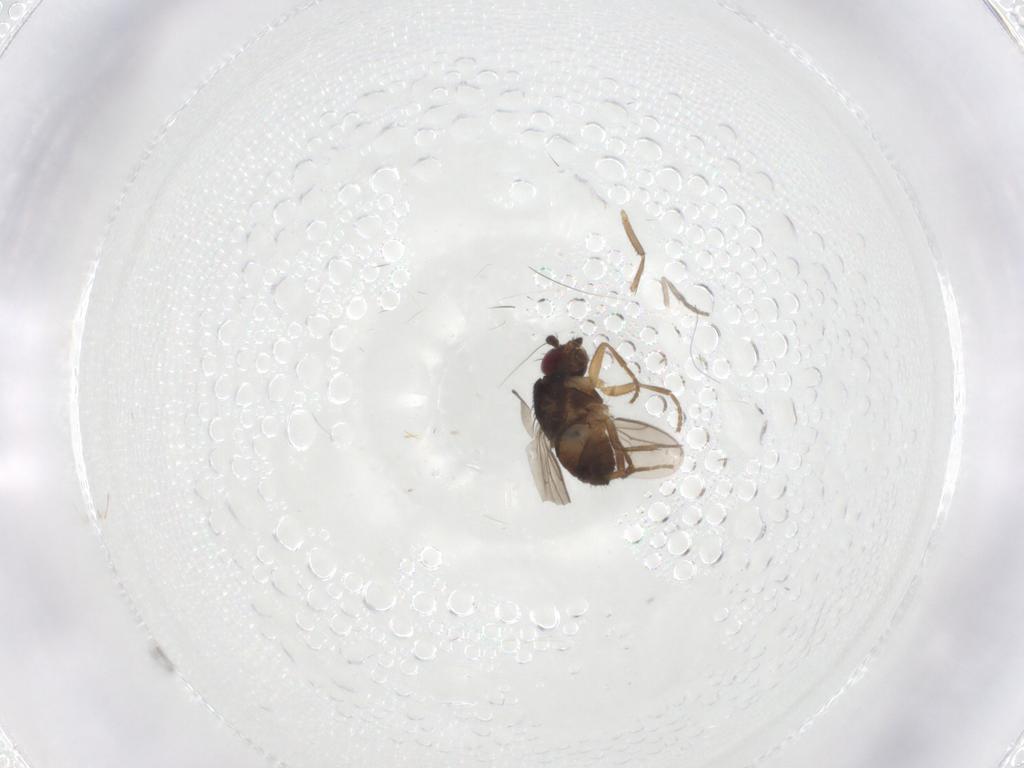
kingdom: Animalia
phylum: Arthropoda
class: Insecta
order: Diptera
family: Sphaeroceridae
